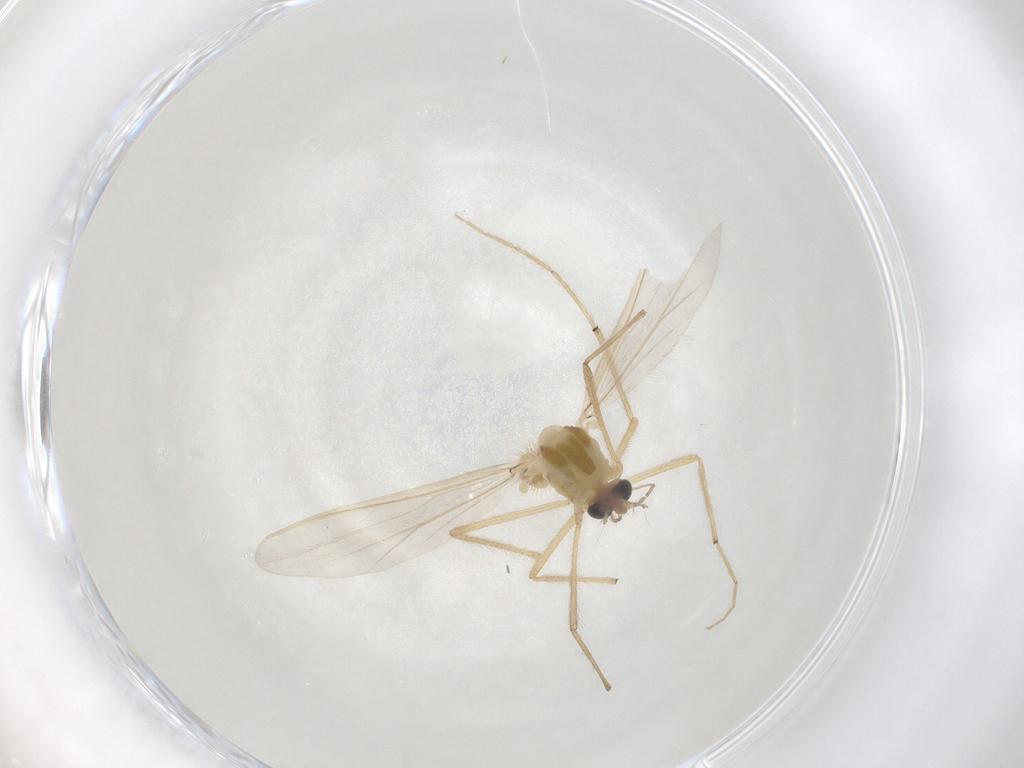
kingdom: Animalia
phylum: Arthropoda
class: Insecta
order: Diptera
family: Chironomidae
